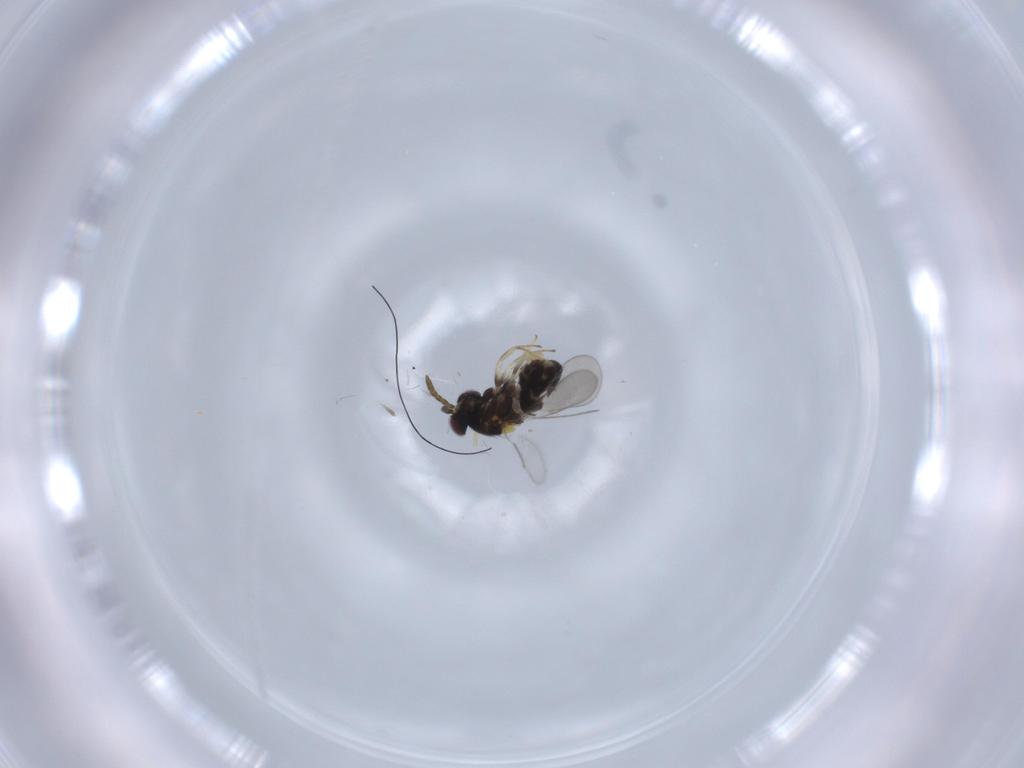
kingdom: Animalia
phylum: Arthropoda
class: Insecta
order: Hymenoptera
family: Aphelinidae
